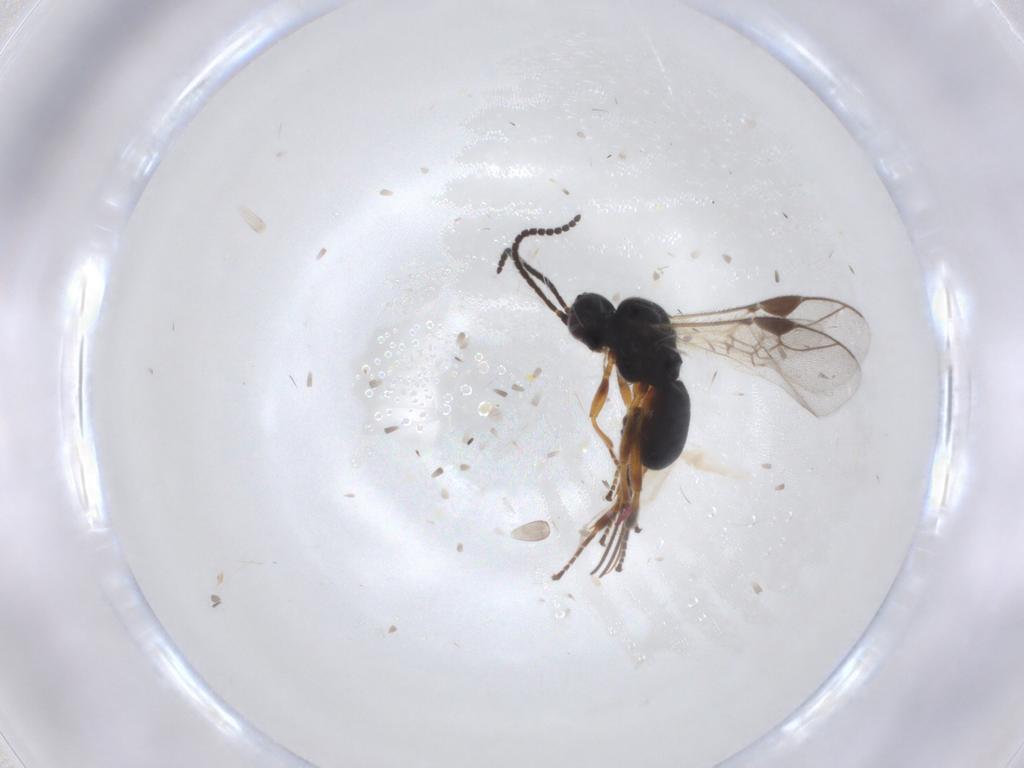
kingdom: Animalia
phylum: Arthropoda
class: Insecta
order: Hymenoptera
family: Braconidae
